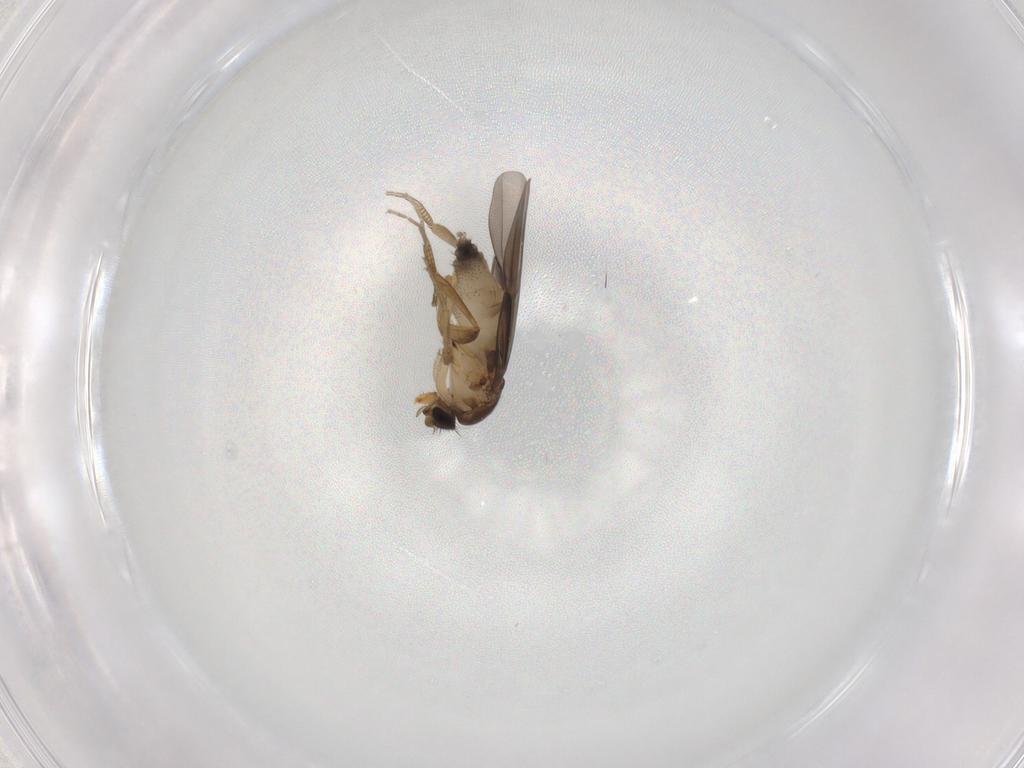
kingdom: Animalia
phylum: Arthropoda
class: Insecta
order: Diptera
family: Phoridae
